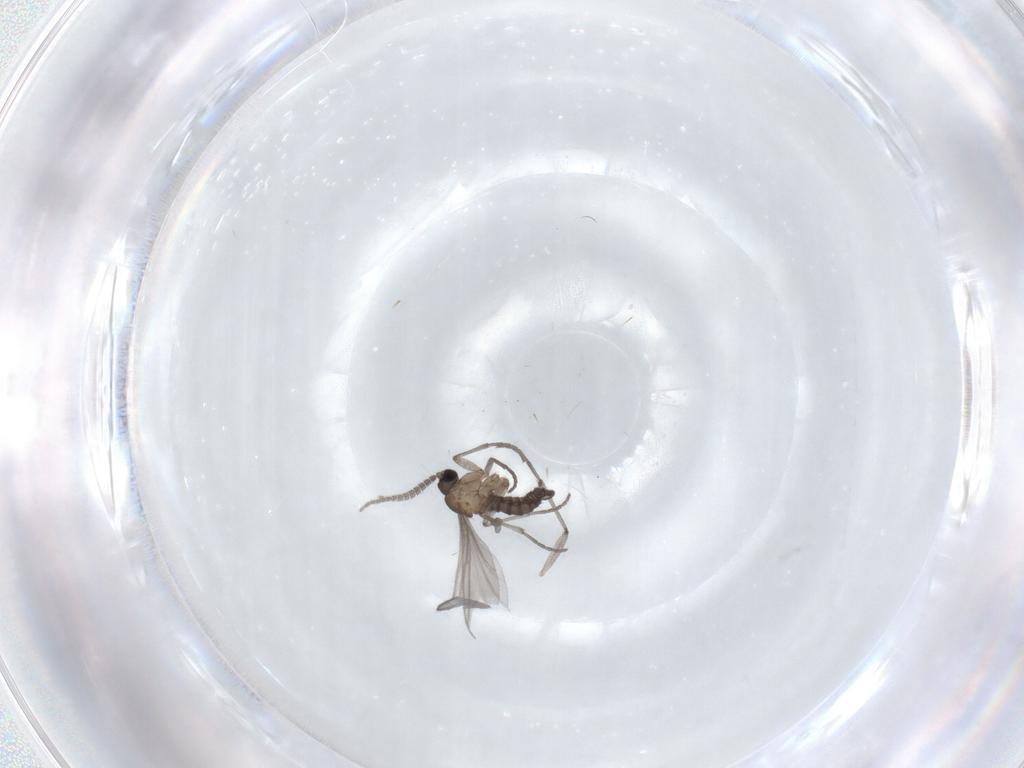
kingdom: Animalia
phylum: Arthropoda
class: Insecta
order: Diptera
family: Sciaridae
